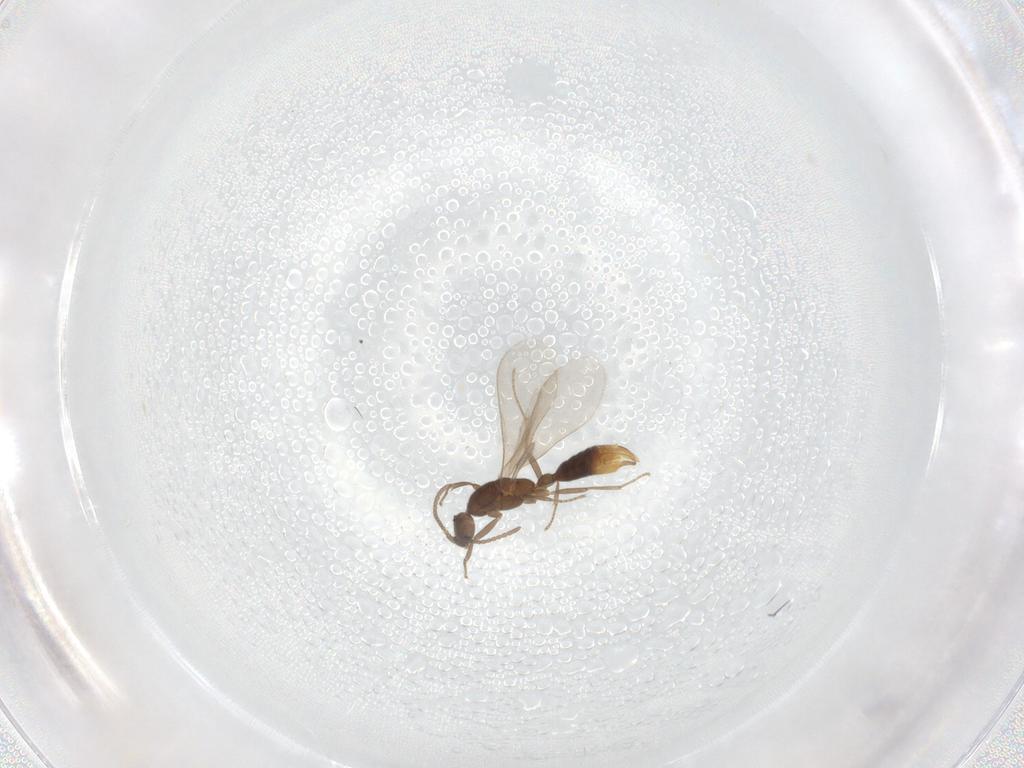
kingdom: Animalia
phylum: Arthropoda
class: Insecta
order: Hymenoptera
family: Formicidae
